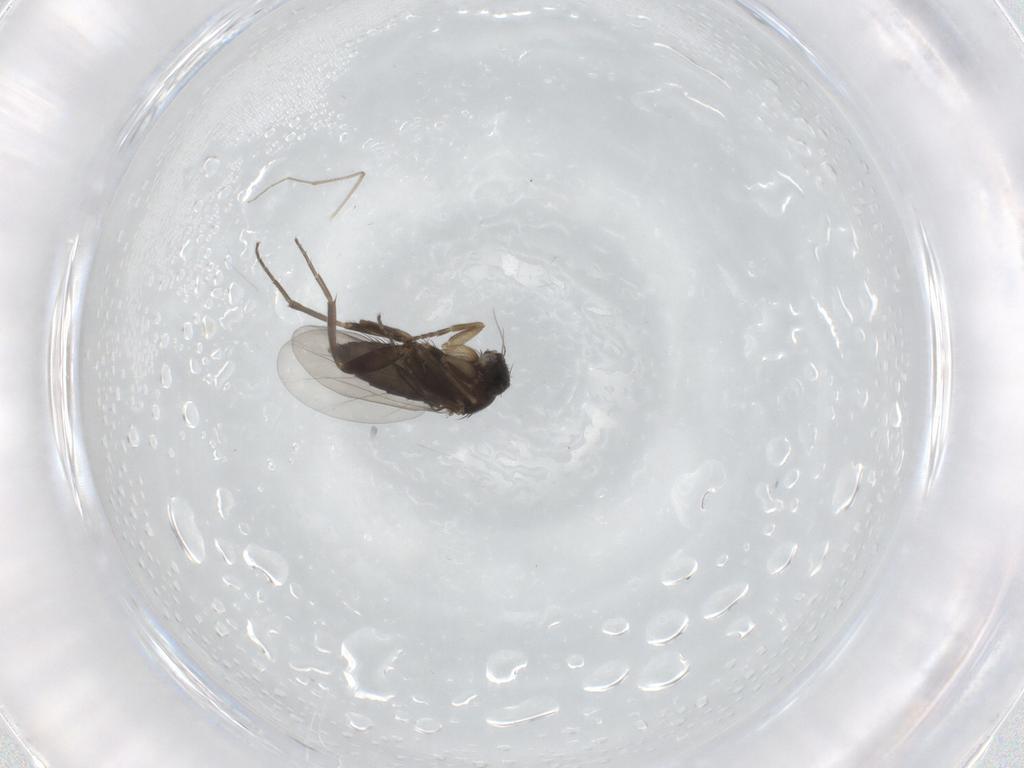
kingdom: Animalia
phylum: Arthropoda
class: Insecta
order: Diptera
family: Phoridae
